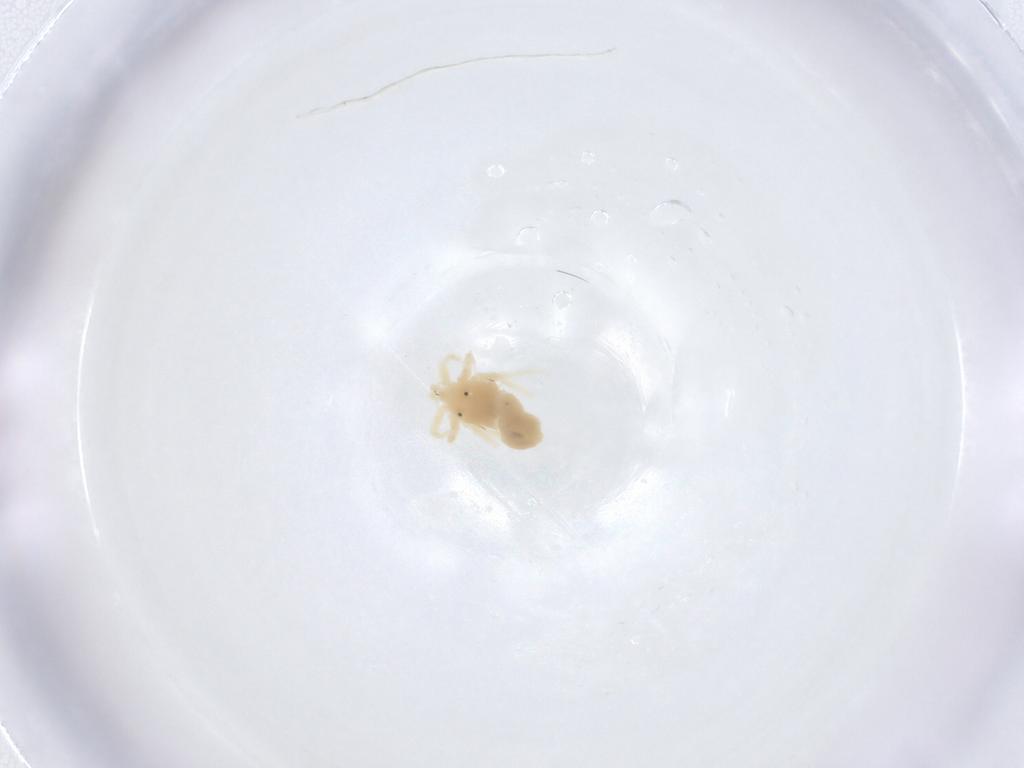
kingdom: Animalia
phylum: Arthropoda
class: Arachnida
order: Trombidiformes
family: Anystidae
